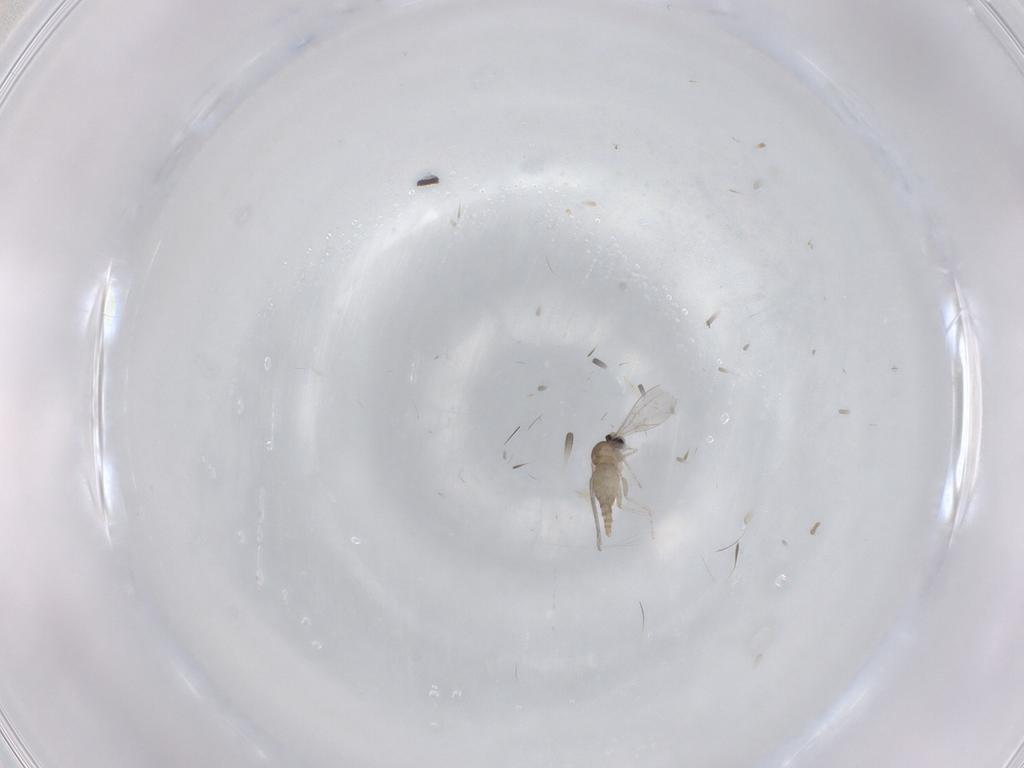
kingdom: Animalia
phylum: Arthropoda
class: Insecta
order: Diptera
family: Cecidomyiidae
